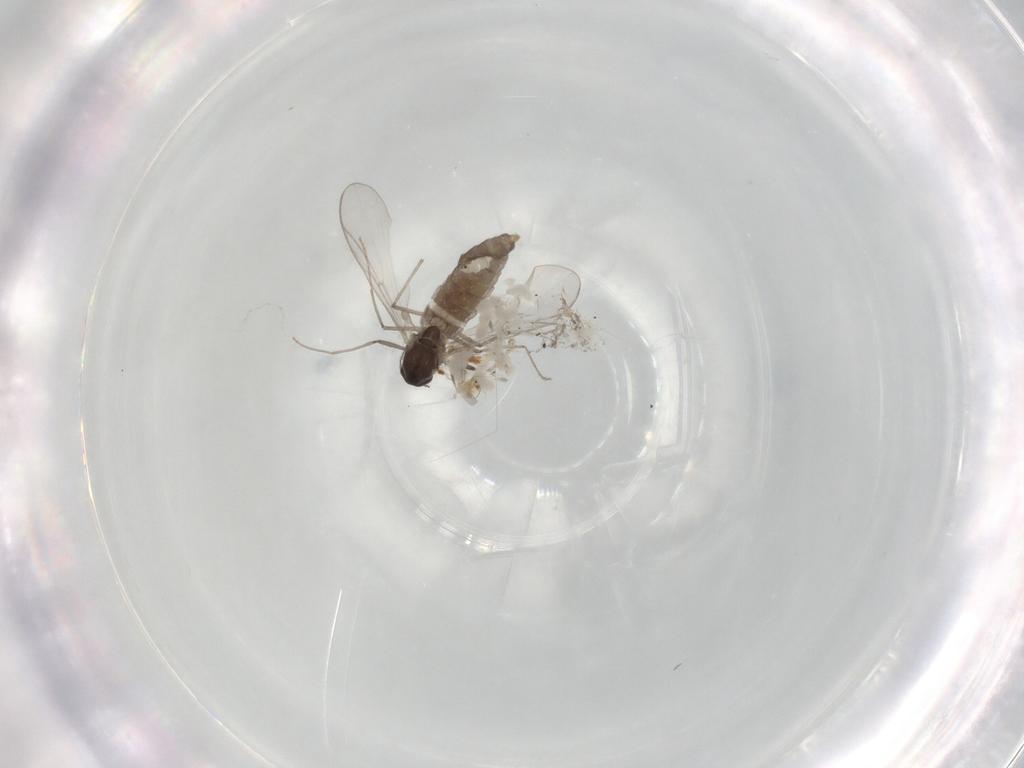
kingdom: Animalia
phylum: Arthropoda
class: Insecta
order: Diptera
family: Chironomidae
